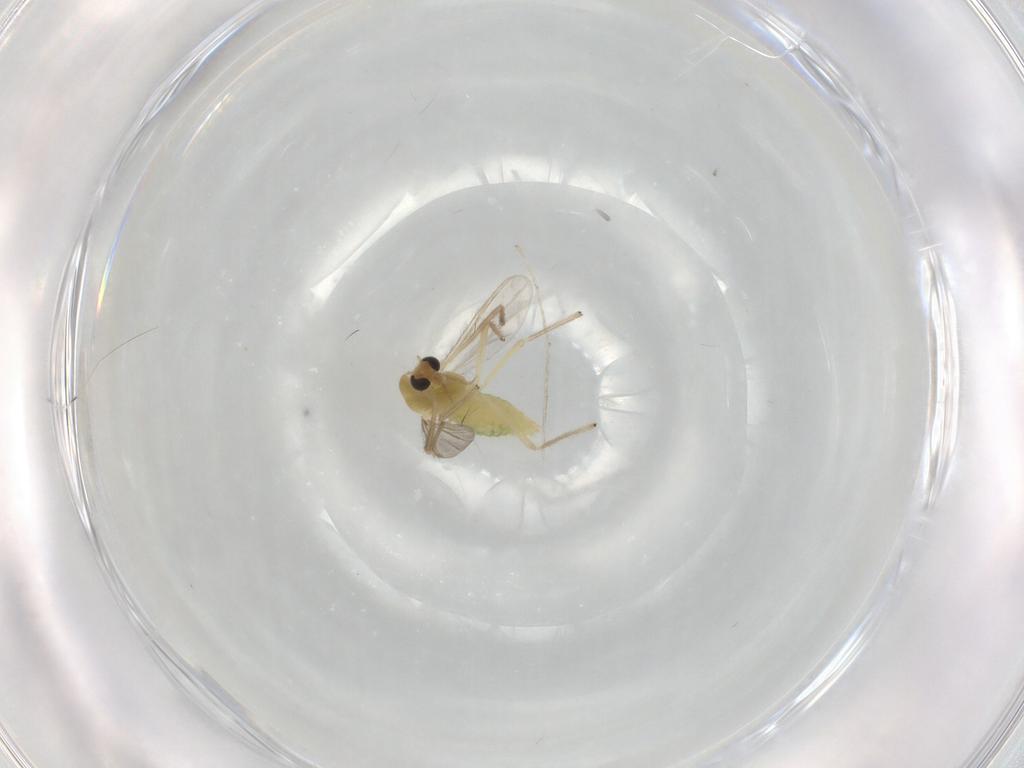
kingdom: Animalia
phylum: Arthropoda
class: Insecta
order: Diptera
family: Chironomidae
